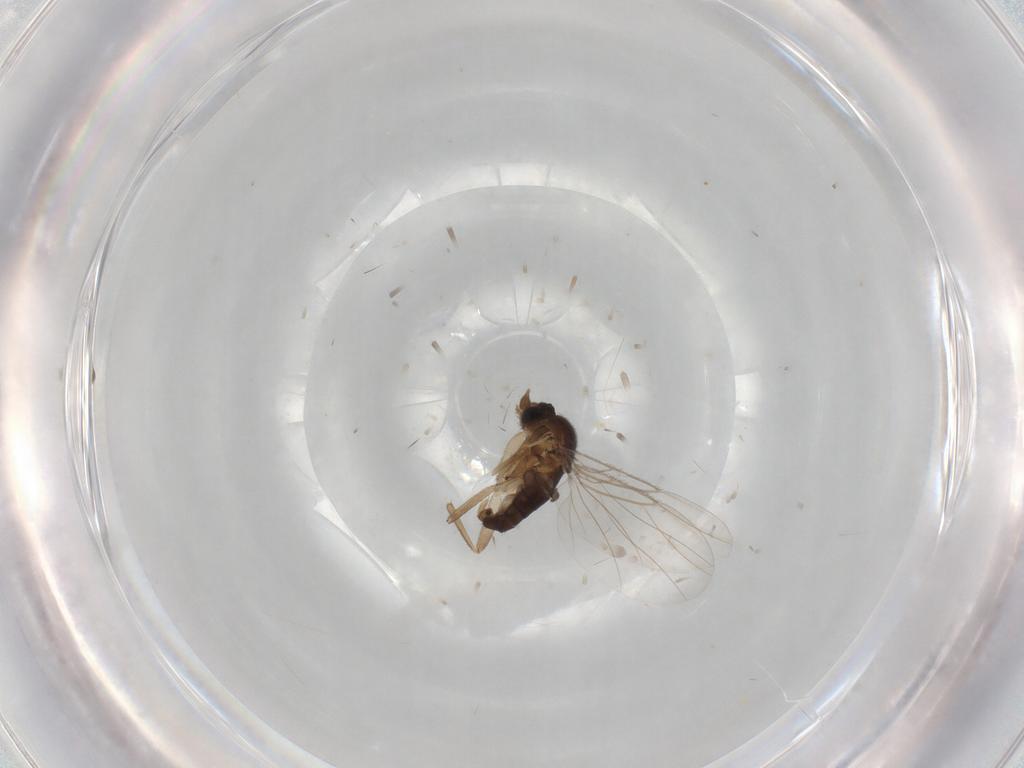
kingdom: Animalia
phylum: Arthropoda
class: Insecta
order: Diptera
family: Phoridae
